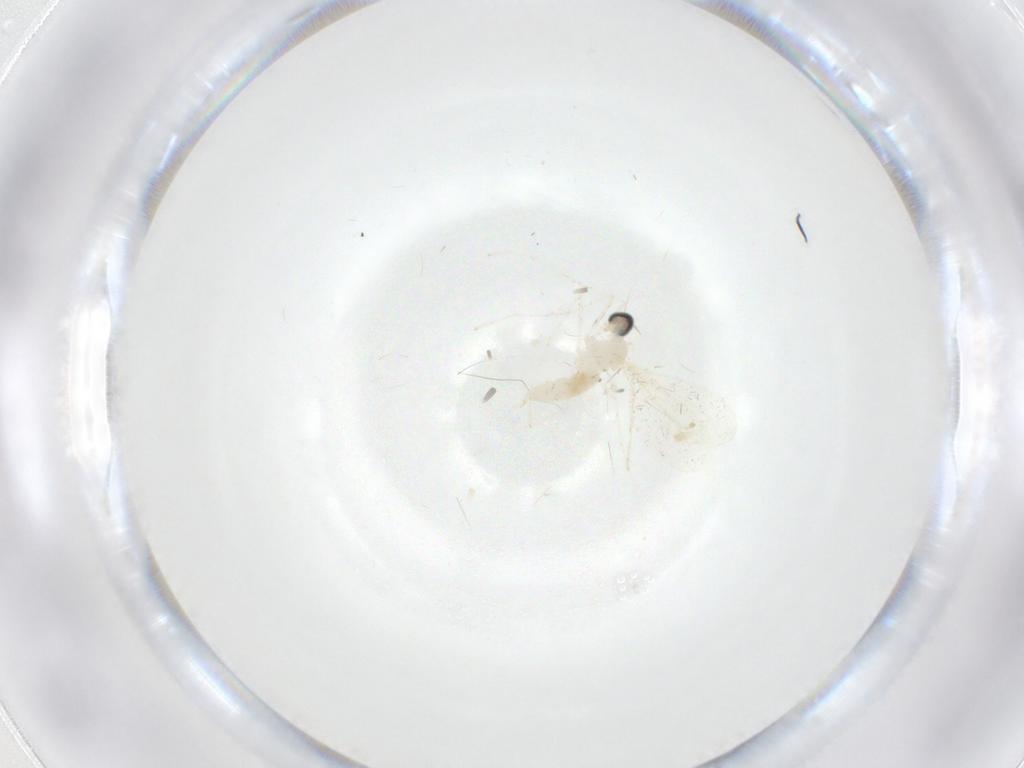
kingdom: Animalia
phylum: Arthropoda
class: Insecta
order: Diptera
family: Cecidomyiidae
